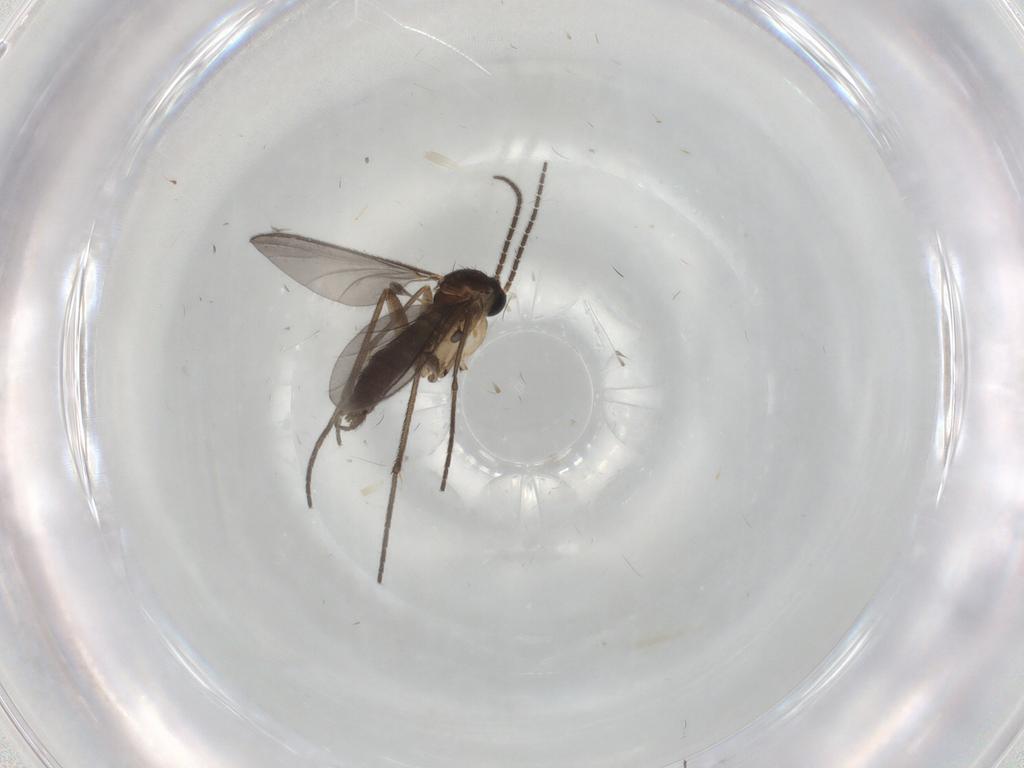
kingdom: Animalia
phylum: Arthropoda
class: Insecta
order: Diptera
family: Sciaridae
